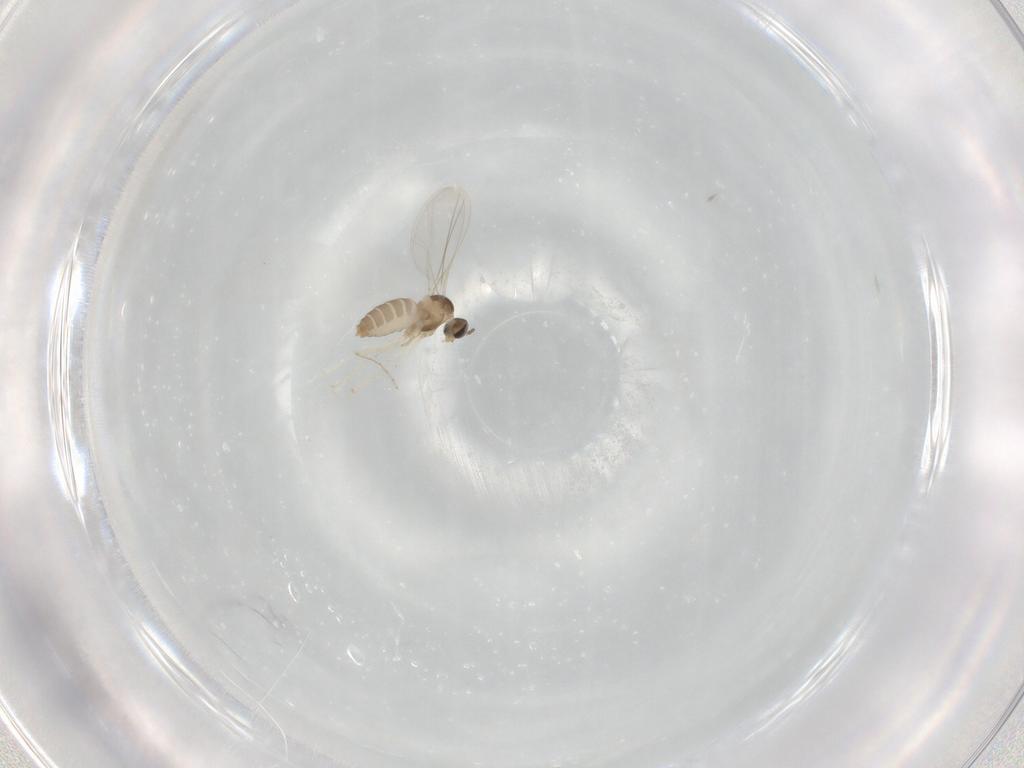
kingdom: Animalia
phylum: Arthropoda
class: Insecta
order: Diptera
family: Cecidomyiidae
